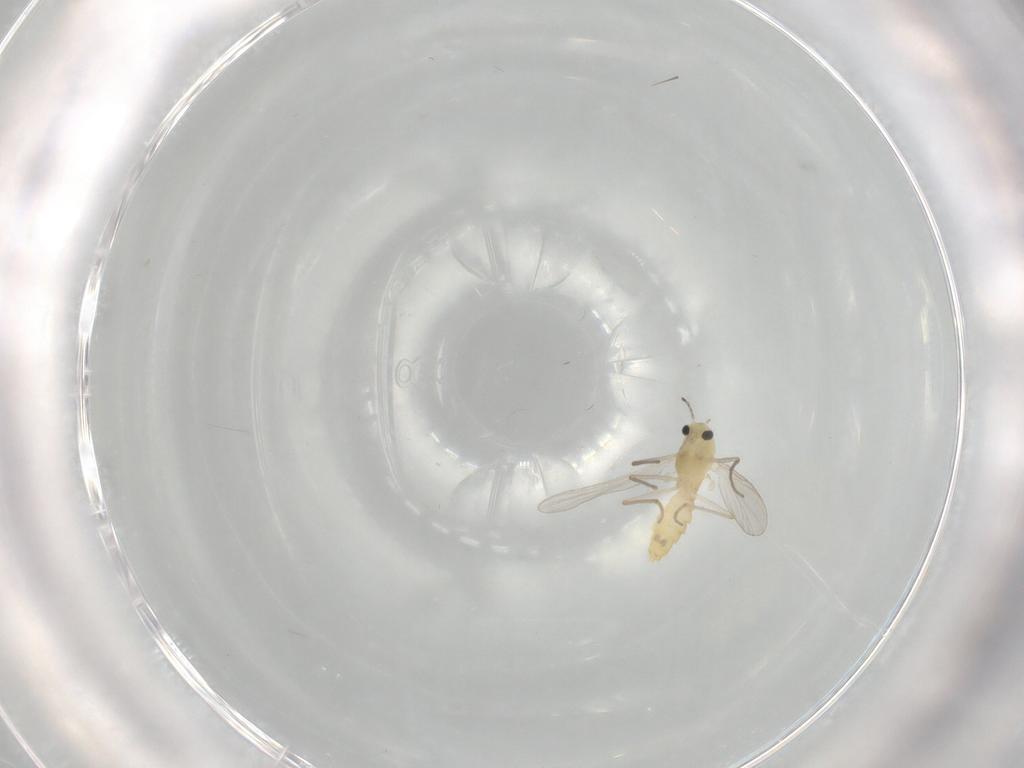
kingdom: Animalia
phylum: Arthropoda
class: Insecta
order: Diptera
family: Chironomidae
